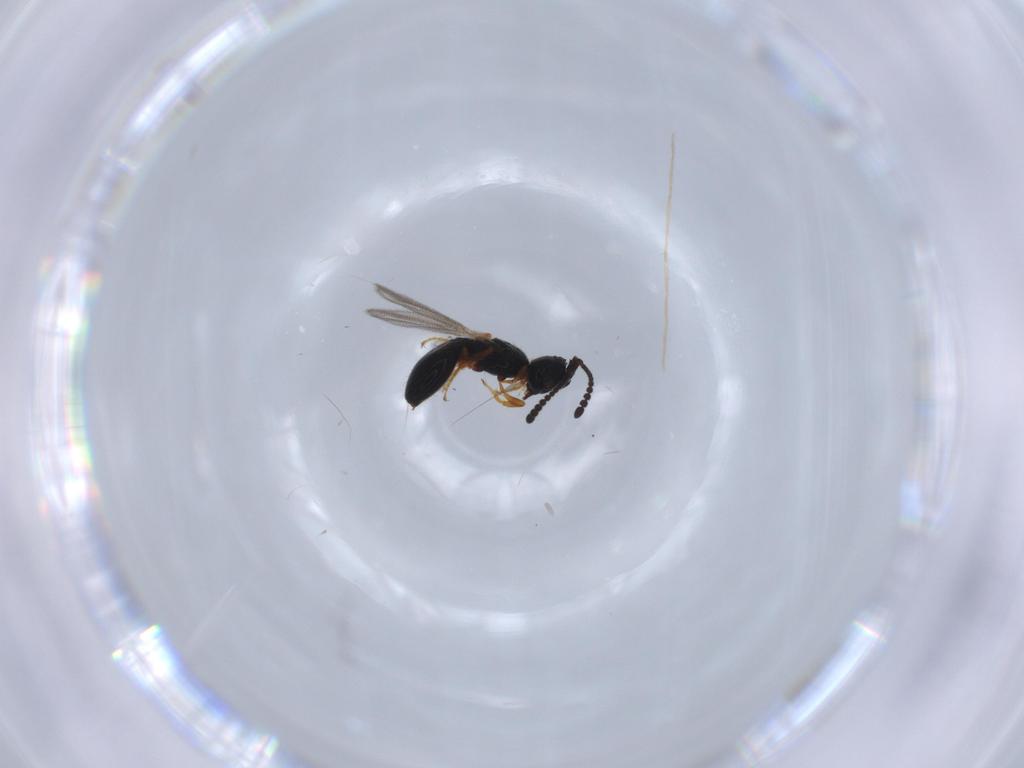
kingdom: Animalia
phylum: Arthropoda
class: Insecta
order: Hymenoptera
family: Diapriidae
